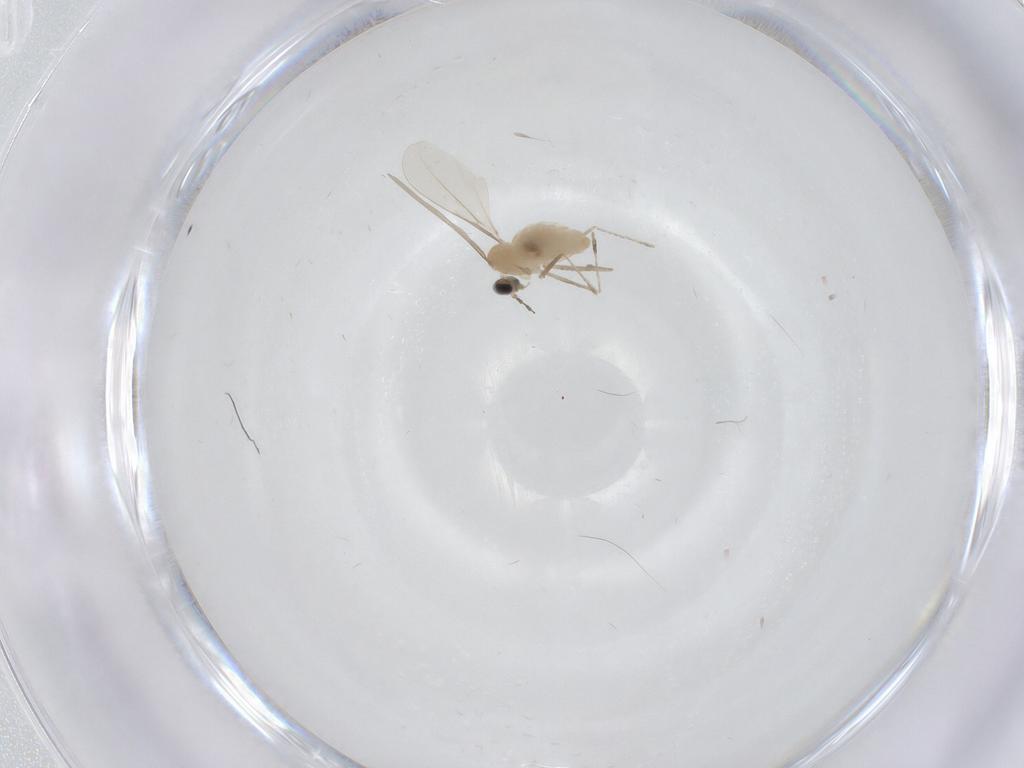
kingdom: Animalia
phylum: Arthropoda
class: Insecta
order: Diptera
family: Cecidomyiidae
